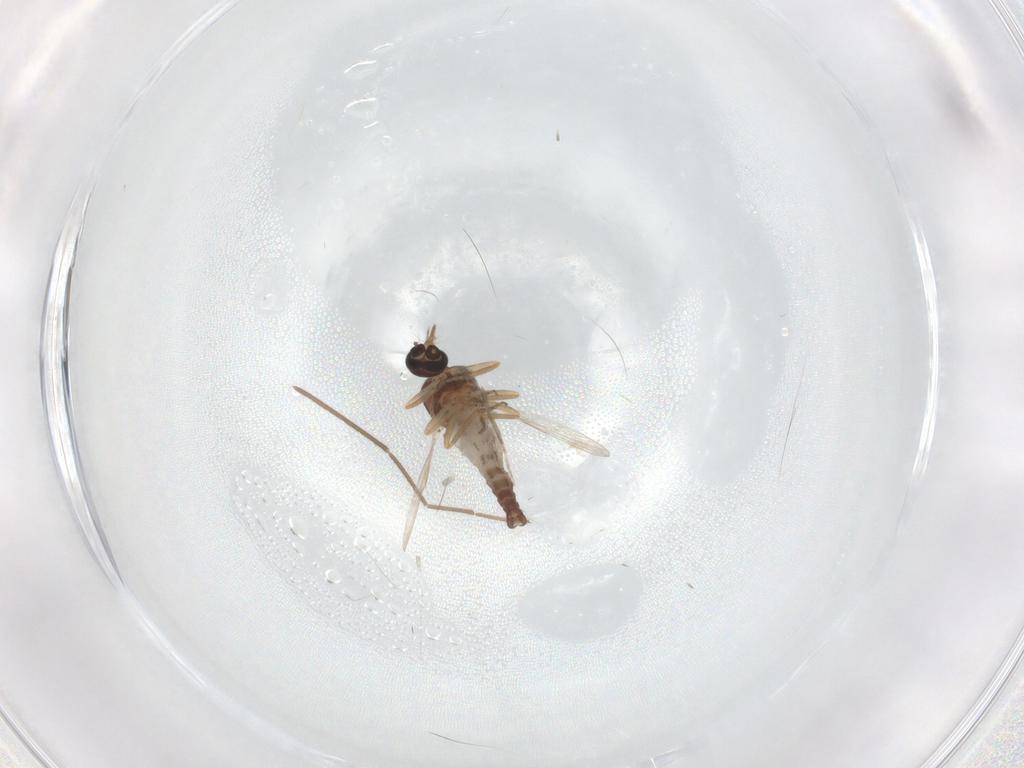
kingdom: Animalia
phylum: Arthropoda
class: Insecta
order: Diptera
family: Ceratopogonidae
